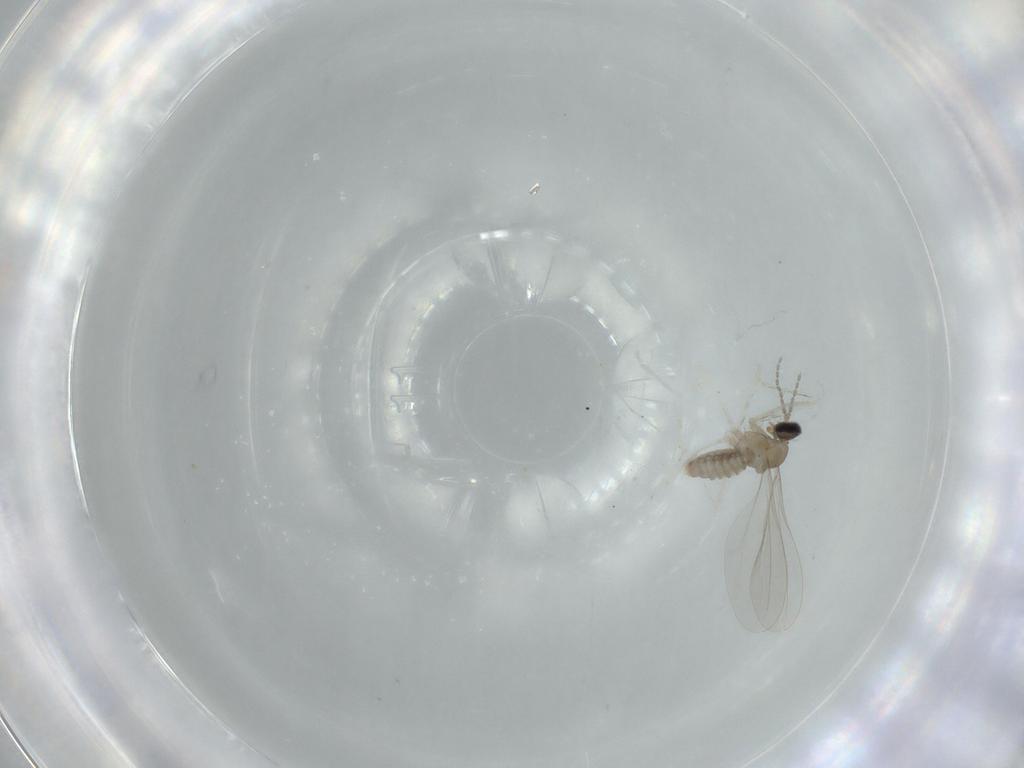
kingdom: Animalia
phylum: Arthropoda
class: Insecta
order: Diptera
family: Cecidomyiidae
